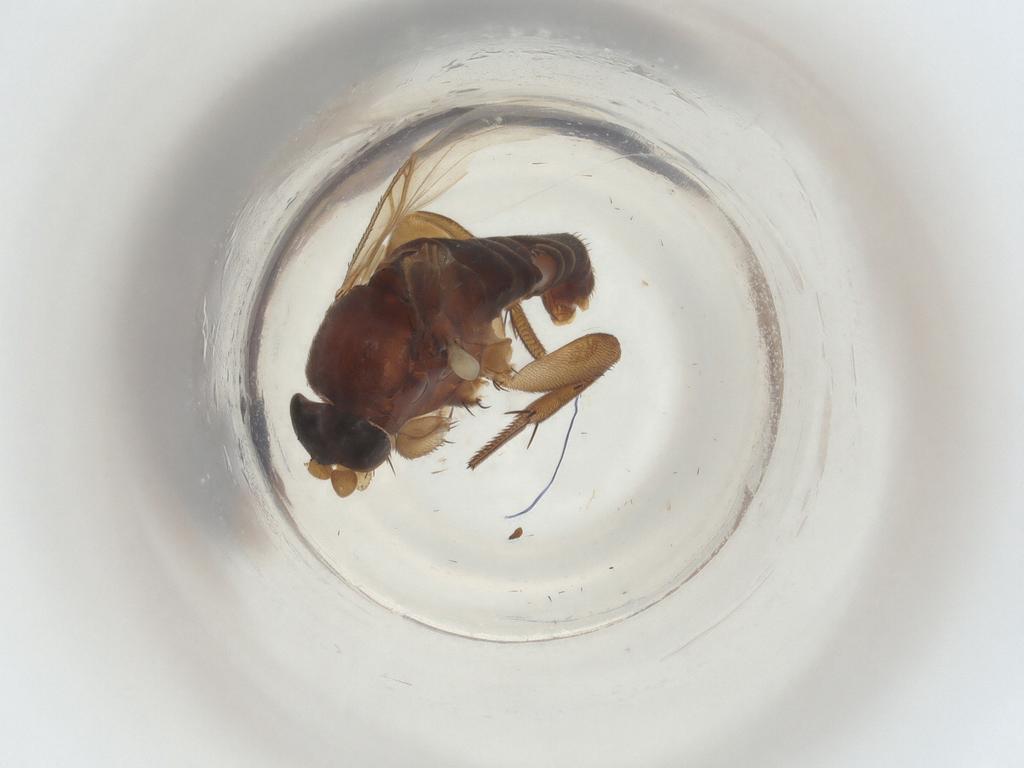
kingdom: Animalia
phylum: Arthropoda
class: Insecta
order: Diptera
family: Phoridae
